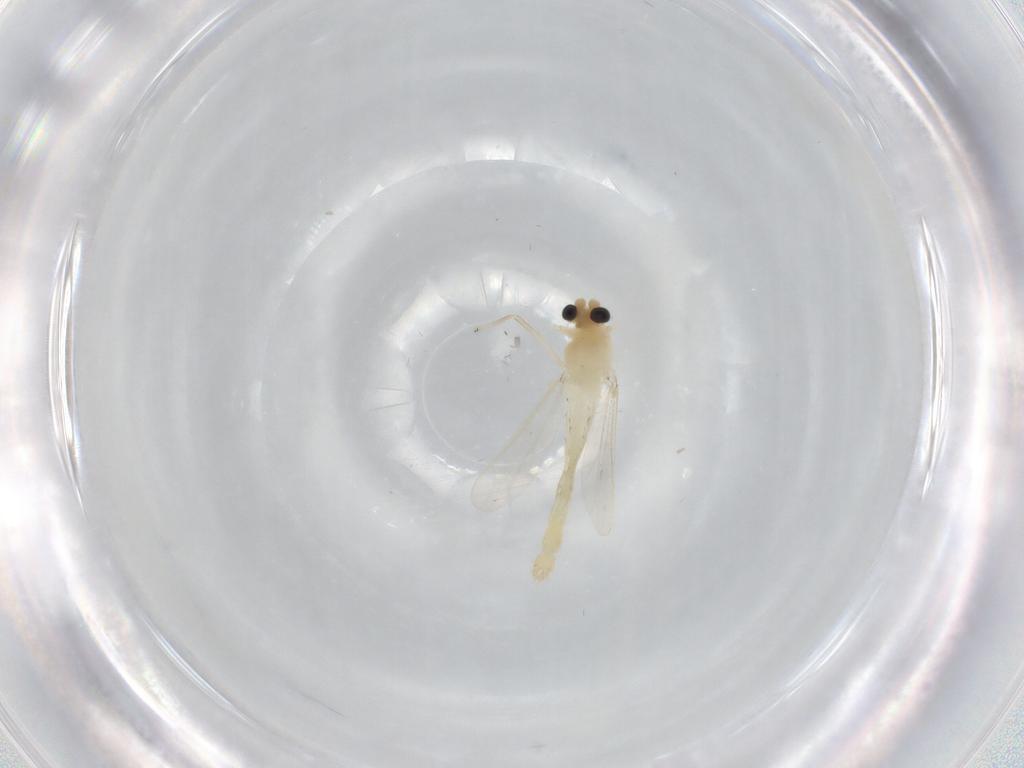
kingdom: Animalia
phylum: Arthropoda
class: Insecta
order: Diptera
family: Chironomidae
